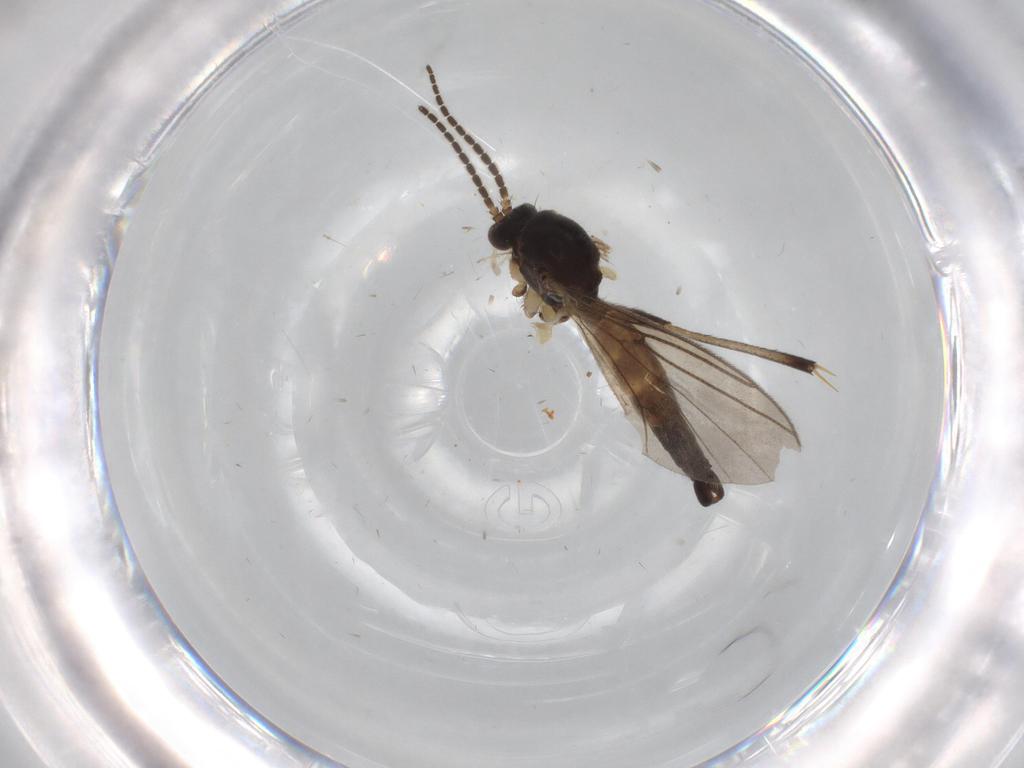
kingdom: Animalia
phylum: Arthropoda
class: Insecta
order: Diptera
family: Mycetophilidae
